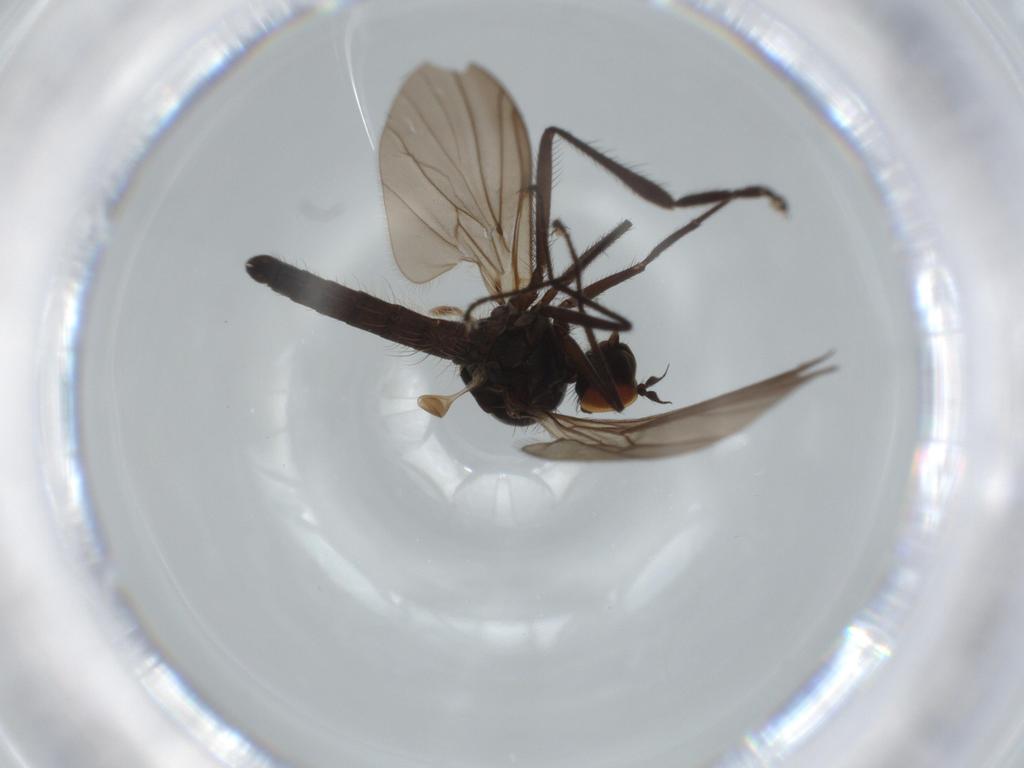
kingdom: Animalia
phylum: Arthropoda
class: Insecta
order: Diptera
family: Hybotidae
